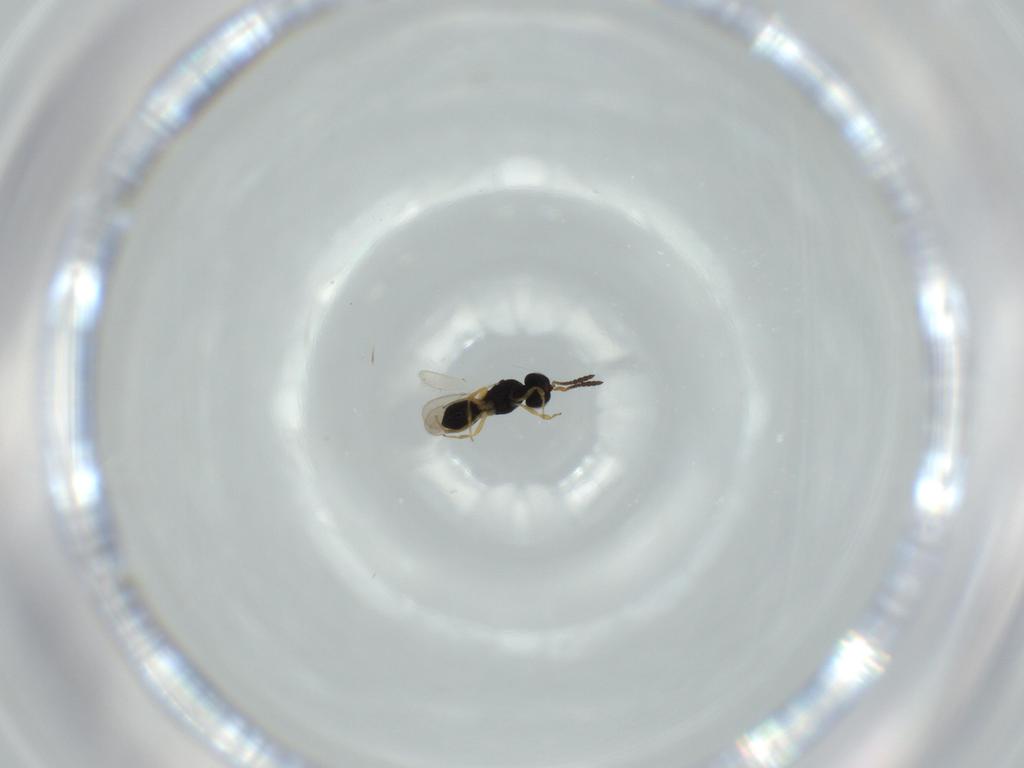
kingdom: Animalia
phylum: Arthropoda
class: Insecta
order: Hymenoptera
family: Scelionidae
